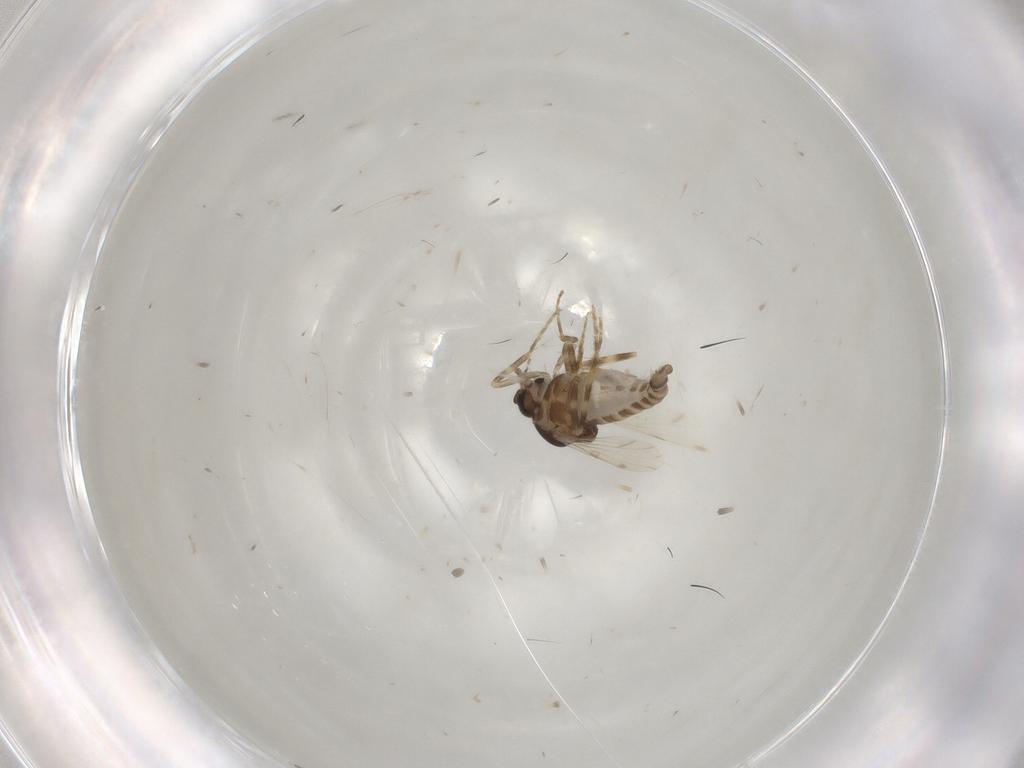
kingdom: Animalia
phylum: Arthropoda
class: Insecta
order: Diptera
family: Ceratopogonidae
